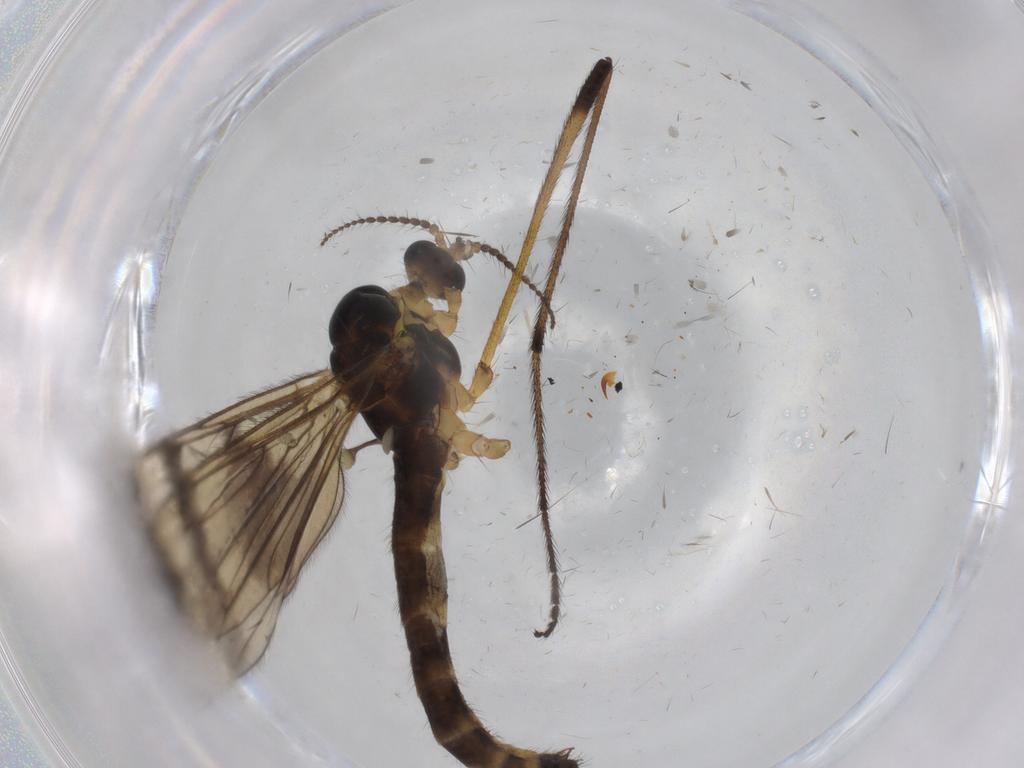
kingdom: Animalia
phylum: Arthropoda
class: Insecta
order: Diptera
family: Limoniidae
